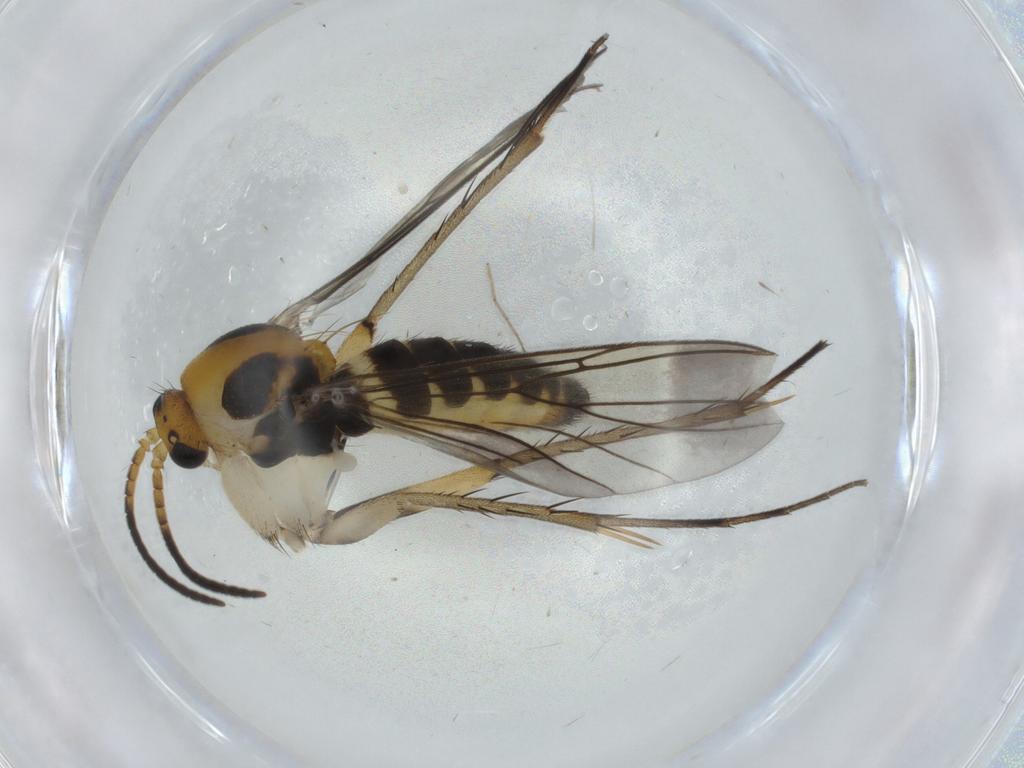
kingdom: Animalia
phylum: Arthropoda
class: Insecta
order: Diptera
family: Mycetophilidae
